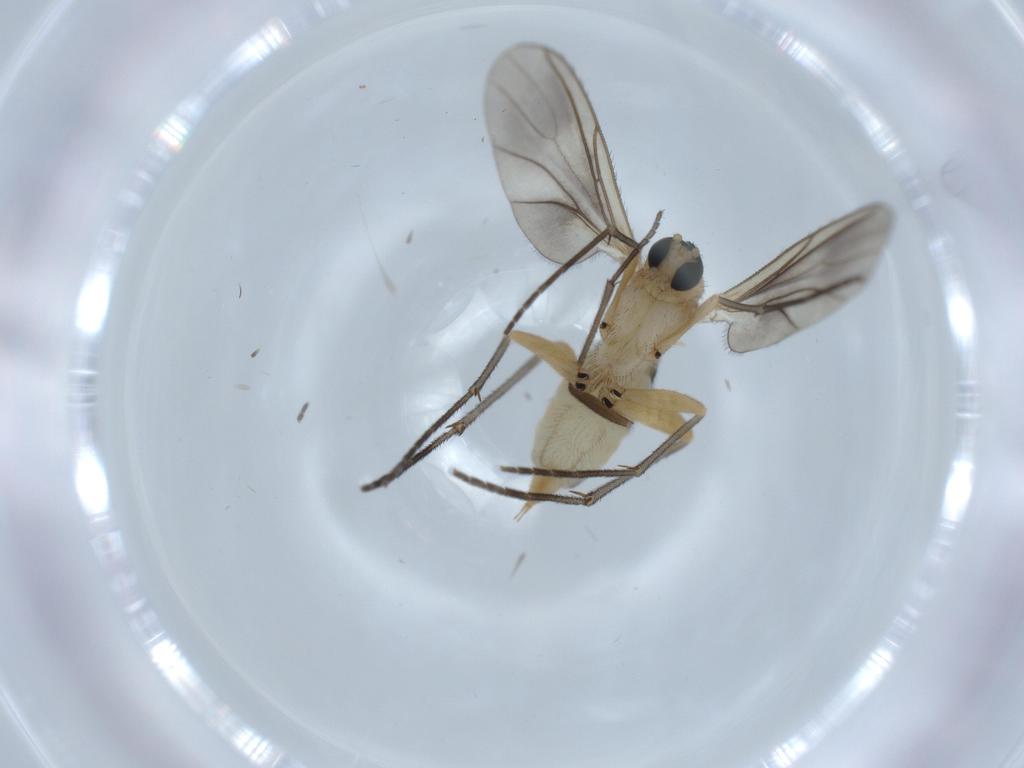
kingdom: Animalia
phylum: Arthropoda
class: Insecta
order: Diptera
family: Sciaridae
